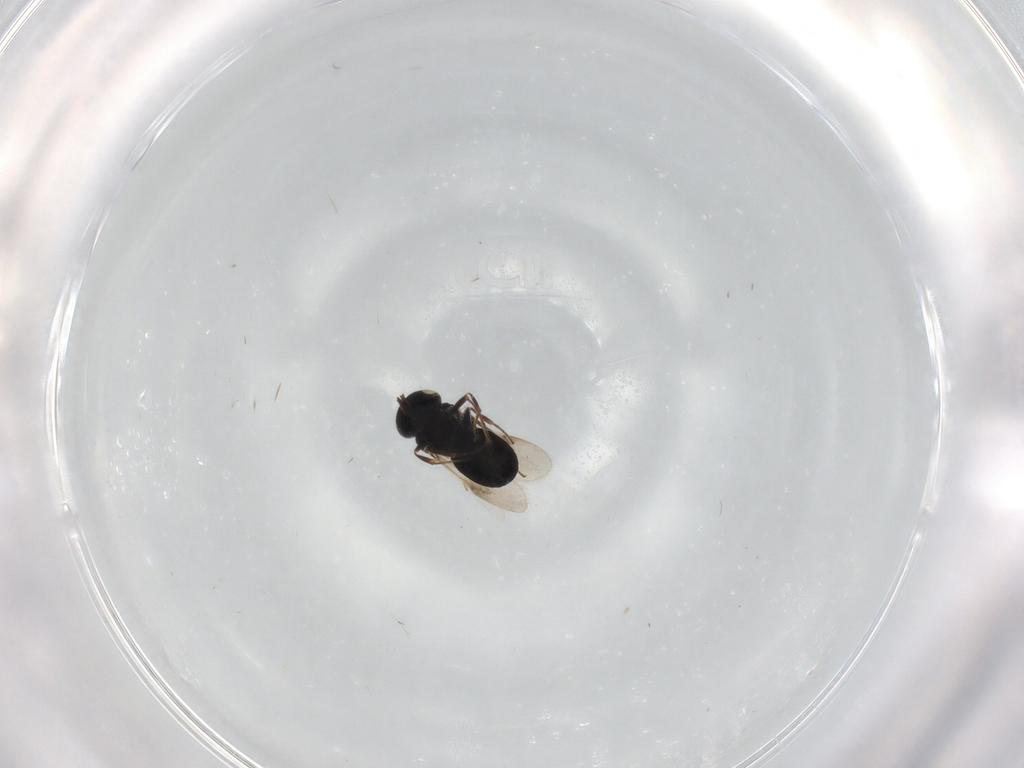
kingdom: Animalia
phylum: Arthropoda
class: Insecta
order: Hymenoptera
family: Scelionidae
